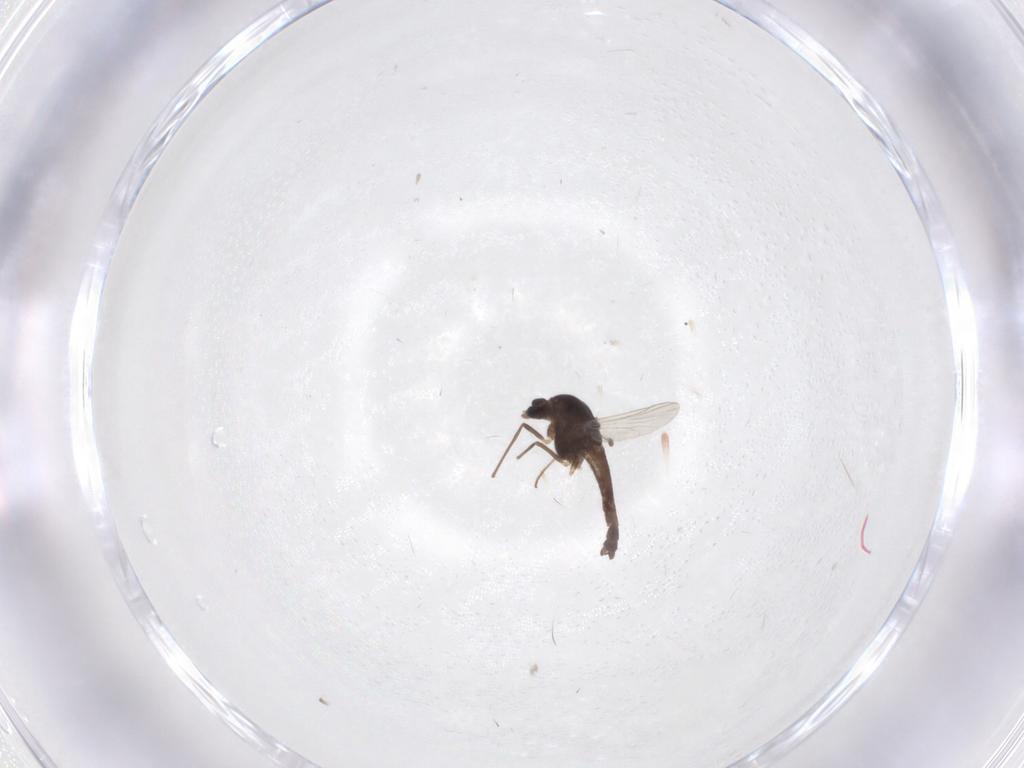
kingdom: Animalia
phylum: Arthropoda
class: Insecta
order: Diptera
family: Chironomidae
